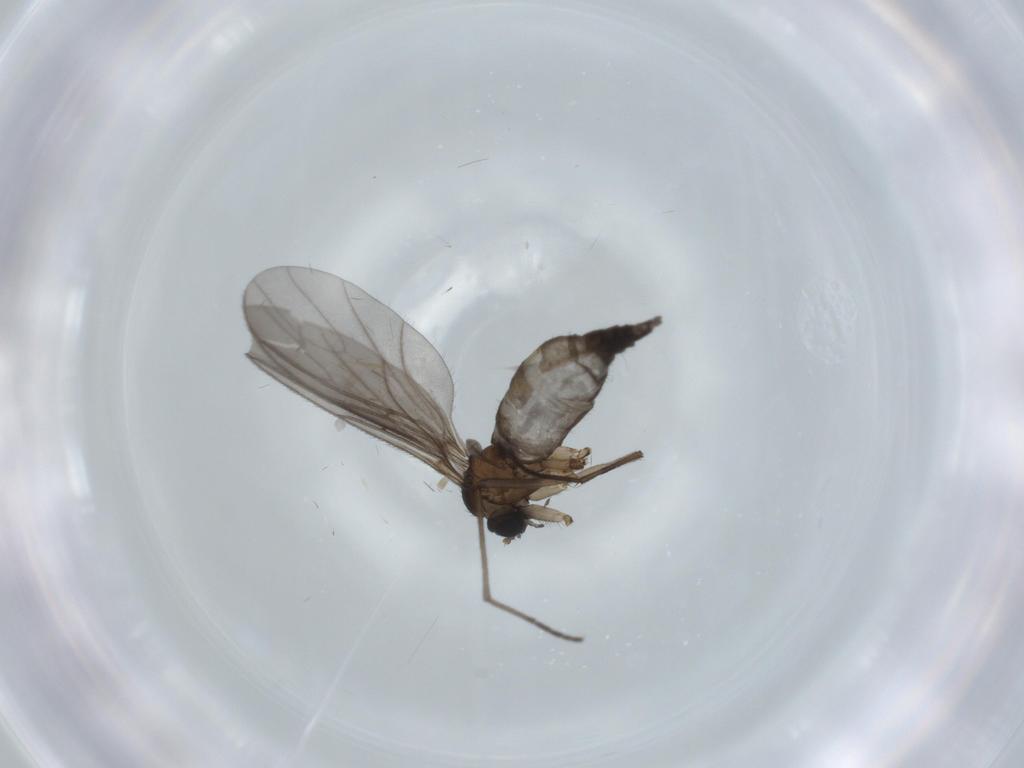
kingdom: Animalia
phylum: Arthropoda
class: Insecta
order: Diptera
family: Sciaridae
